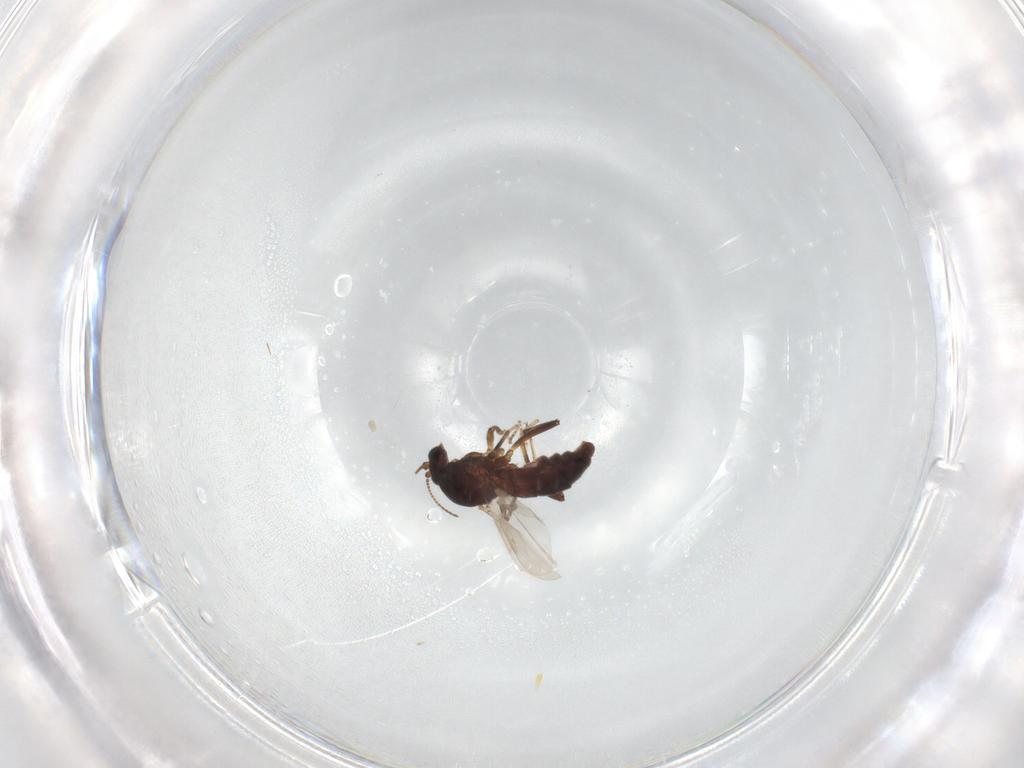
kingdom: Animalia
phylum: Arthropoda
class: Insecta
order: Diptera
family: Ceratopogonidae
